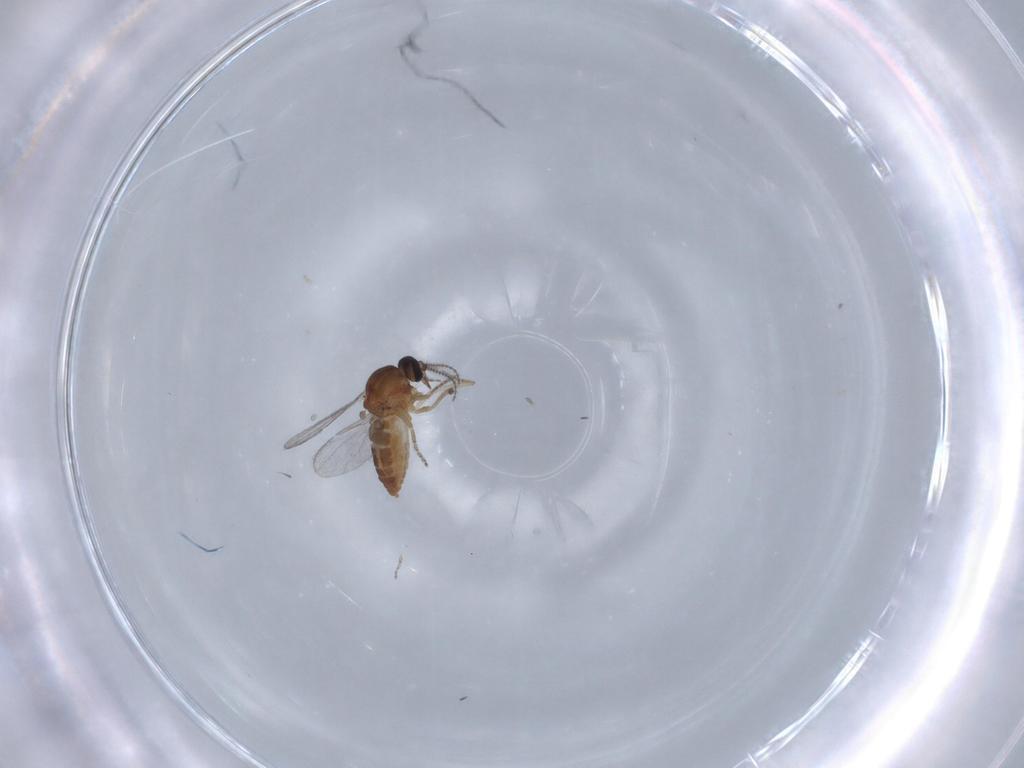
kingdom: Animalia
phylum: Arthropoda
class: Insecta
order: Diptera
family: Ceratopogonidae
